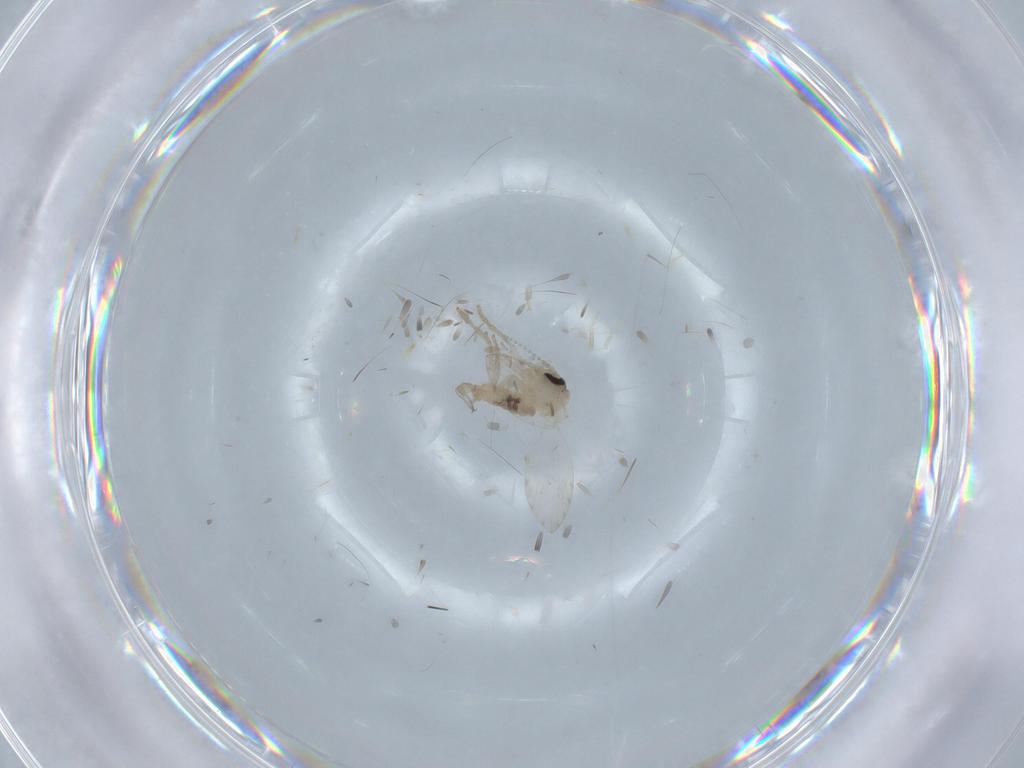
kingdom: Animalia
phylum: Arthropoda
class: Insecta
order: Diptera
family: Psychodidae
